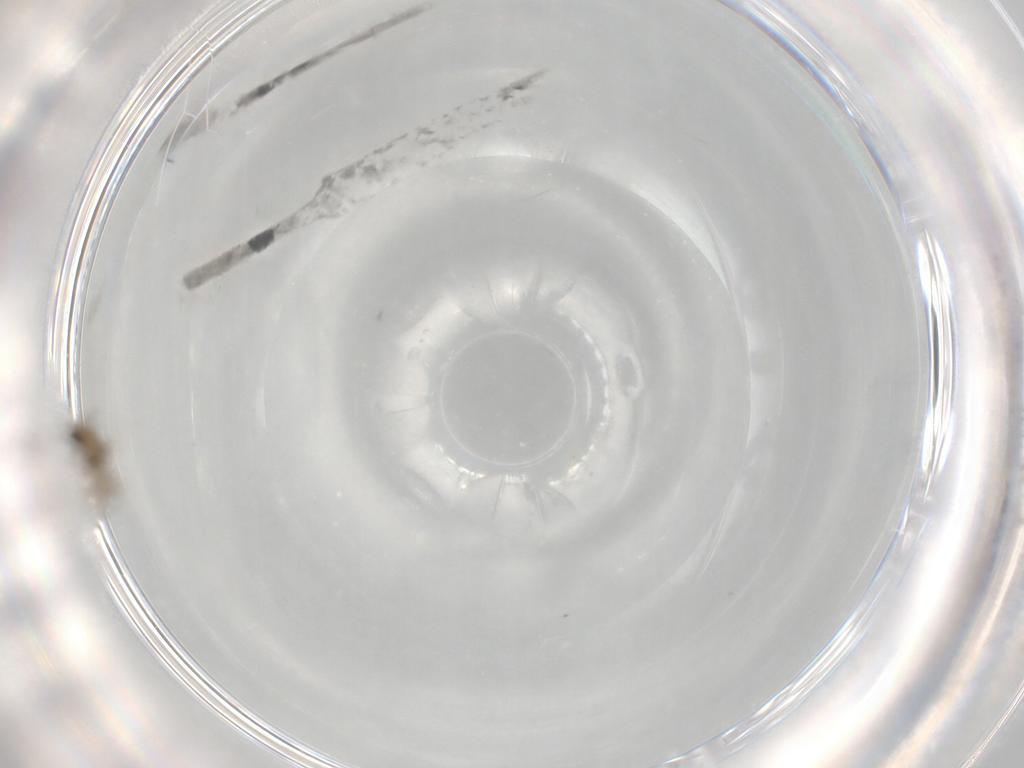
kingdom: Animalia
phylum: Arthropoda
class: Insecta
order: Diptera
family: Chironomidae
